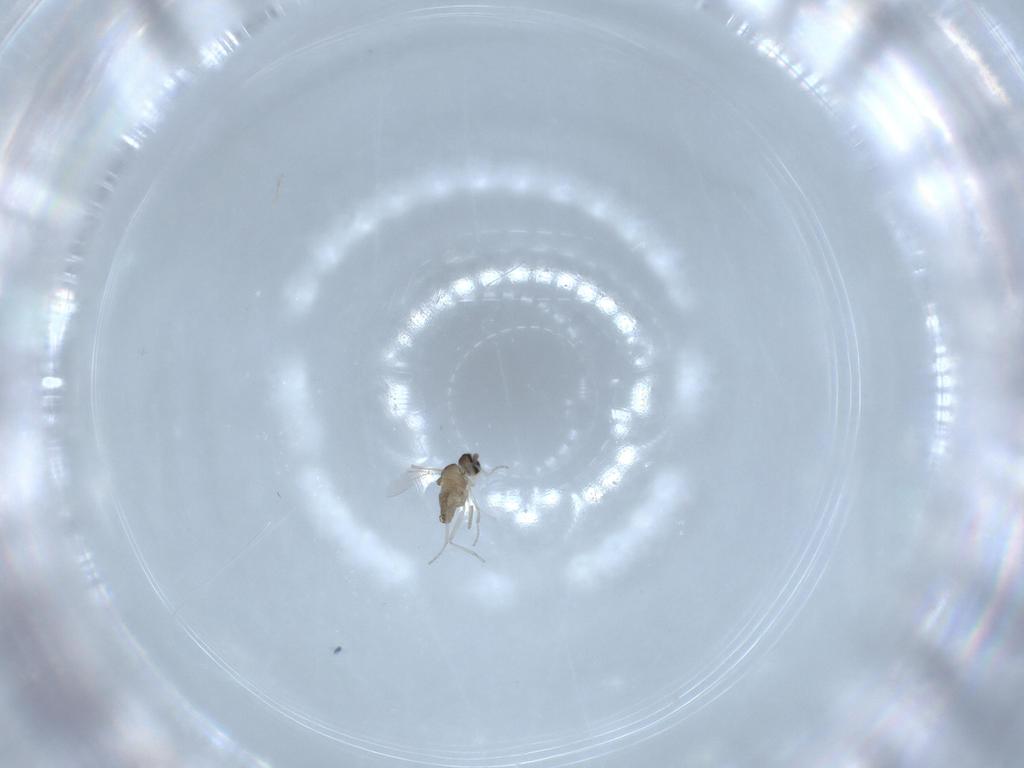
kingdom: Animalia
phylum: Arthropoda
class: Insecta
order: Diptera
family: Cecidomyiidae
